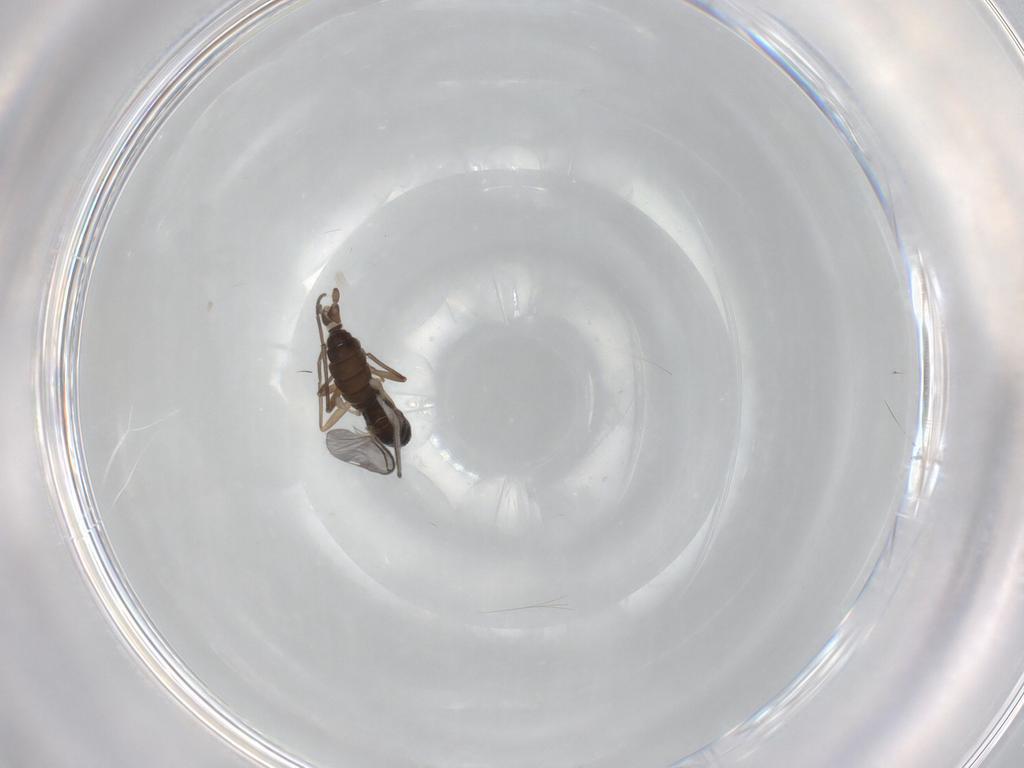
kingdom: Animalia
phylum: Arthropoda
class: Insecta
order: Diptera
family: Sciaridae
